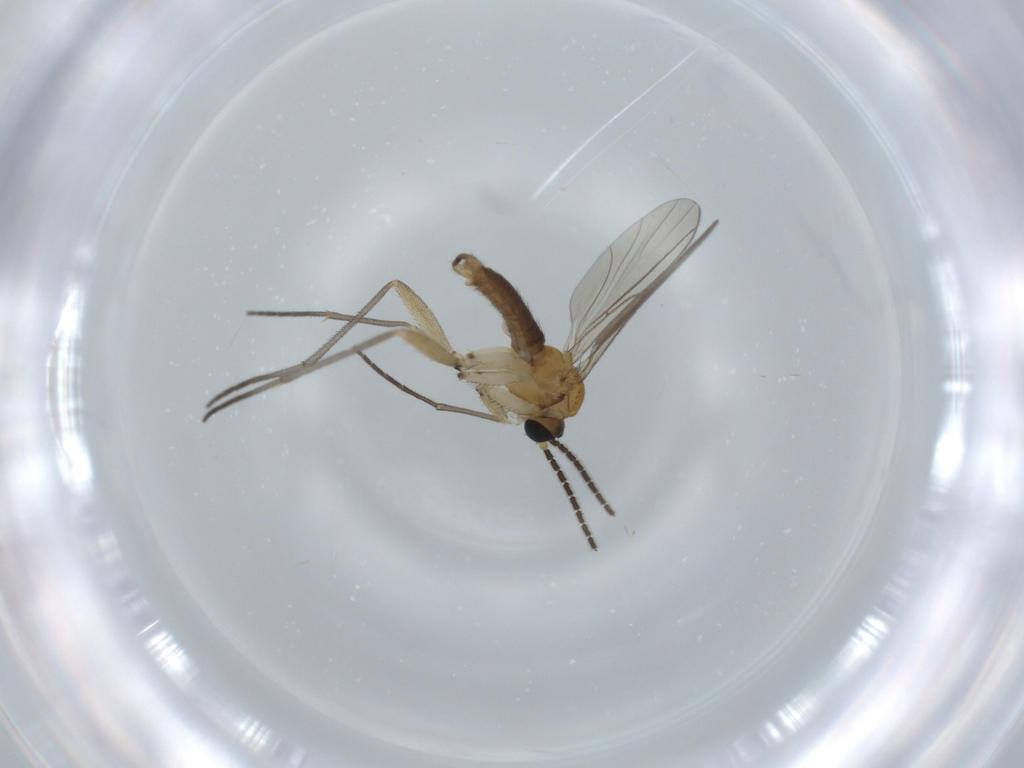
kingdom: Animalia
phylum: Arthropoda
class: Insecta
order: Diptera
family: Sciaridae
